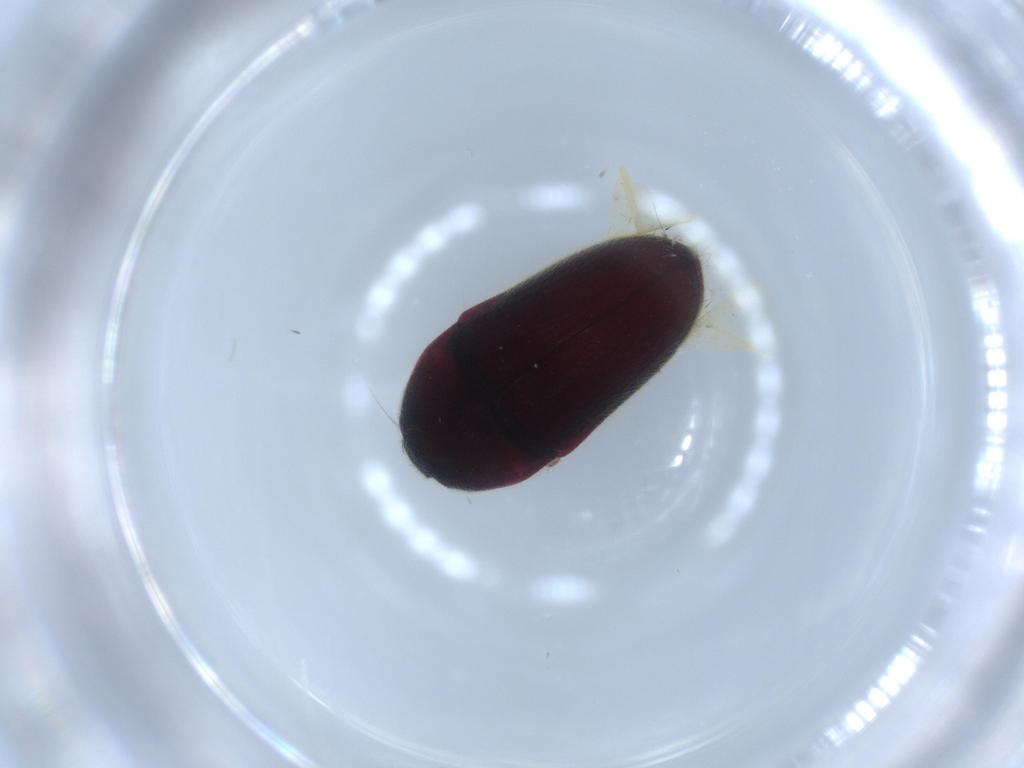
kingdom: Animalia
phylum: Arthropoda
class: Insecta
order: Coleoptera
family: Throscidae
